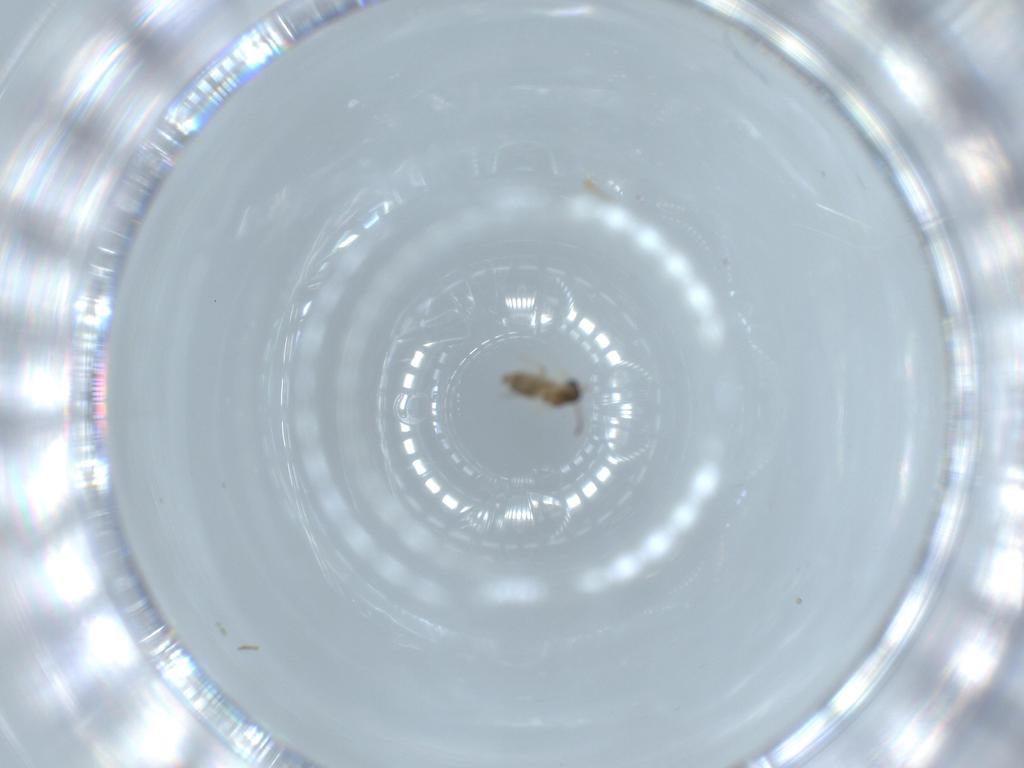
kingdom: Animalia
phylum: Arthropoda
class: Insecta
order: Diptera
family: Cecidomyiidae
